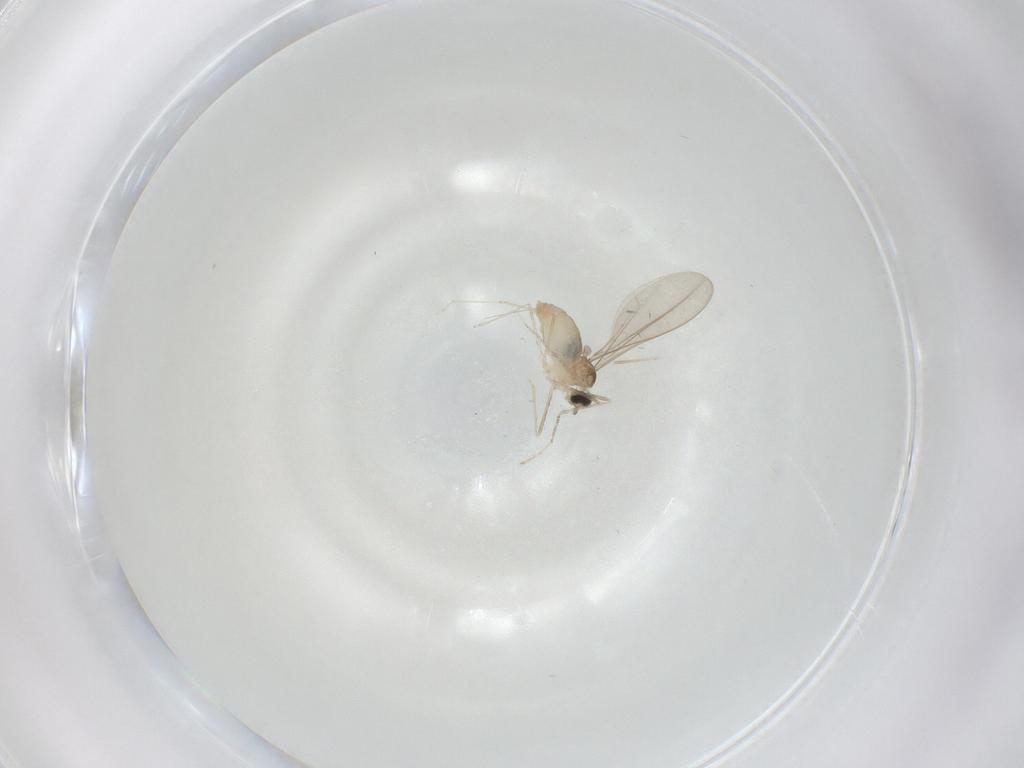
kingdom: Animalia
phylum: Arthropoda
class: Insecta
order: Diptera
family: Cecidomyiidae
